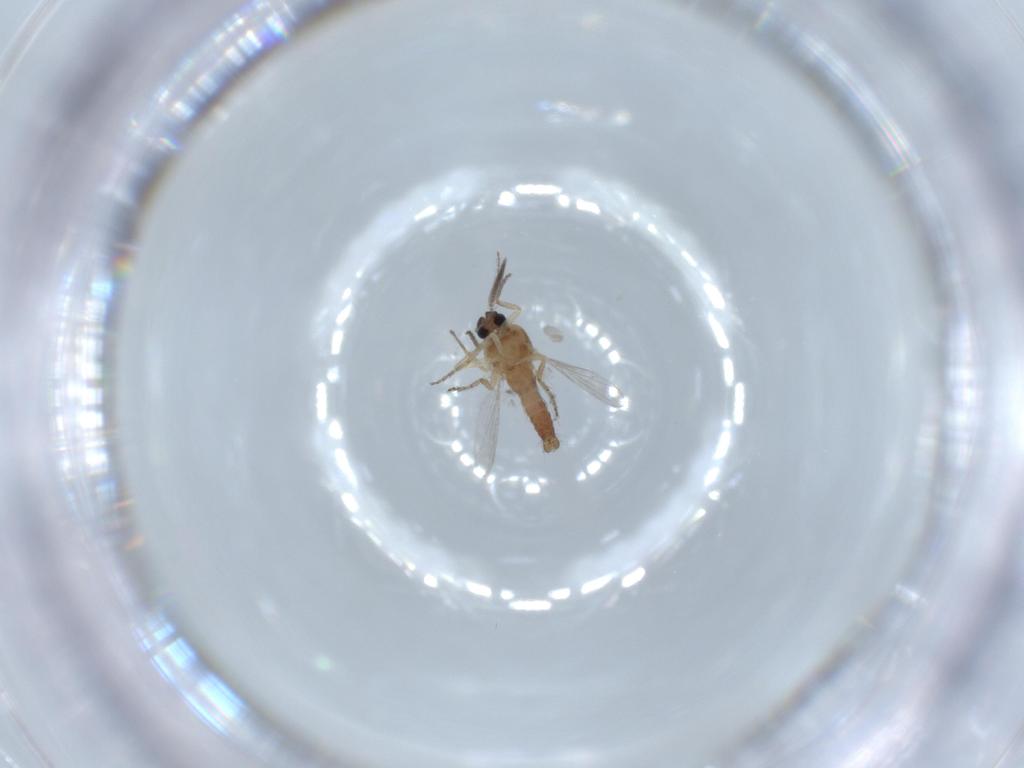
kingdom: Animalia
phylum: Arthropoda
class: Insecta
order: Diptera
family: Ceratopogonidae
